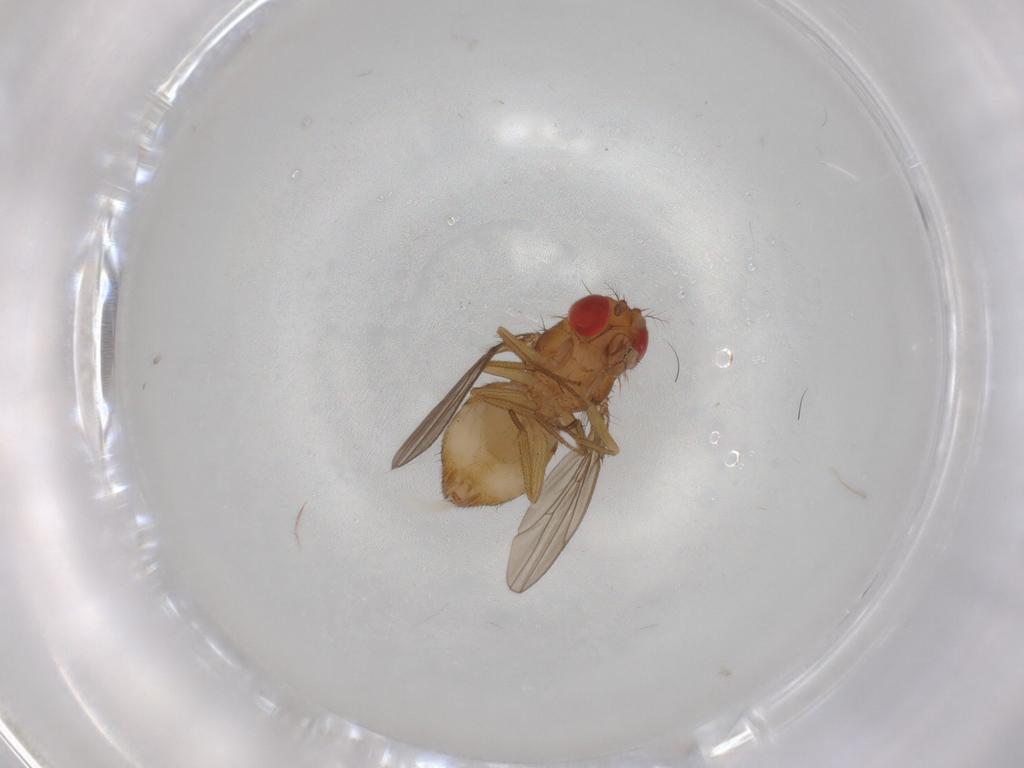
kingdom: Animalia
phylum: Arthropoda
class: Insecta
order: Diptera
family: Drosophilidae
